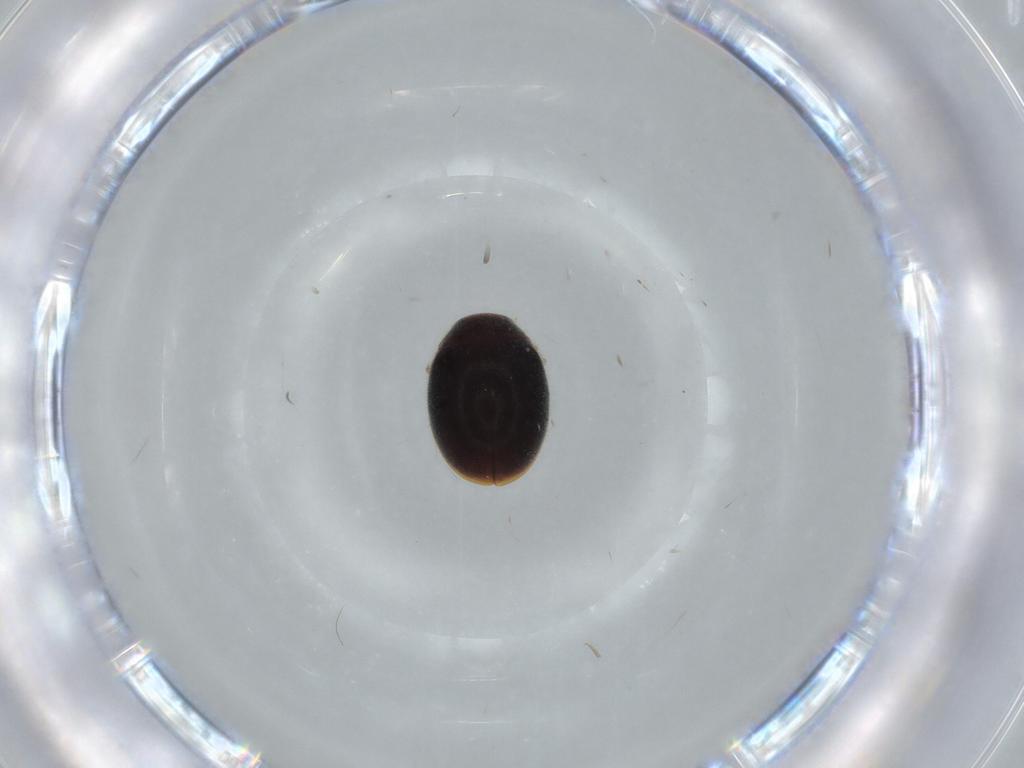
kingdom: Animalia
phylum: Arthropoda
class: Insecta
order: Coleoptera
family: Coccinellidae
